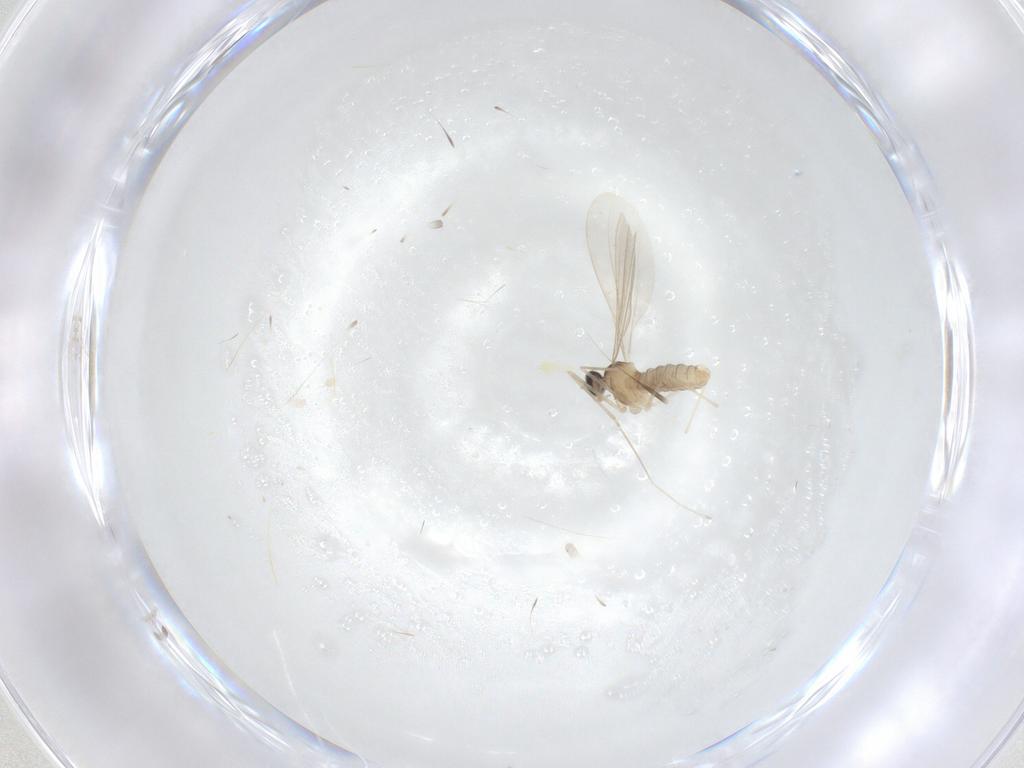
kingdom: Animalia
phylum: Arthropoda
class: Insecta
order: Diptera
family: Cecidomyiidae
